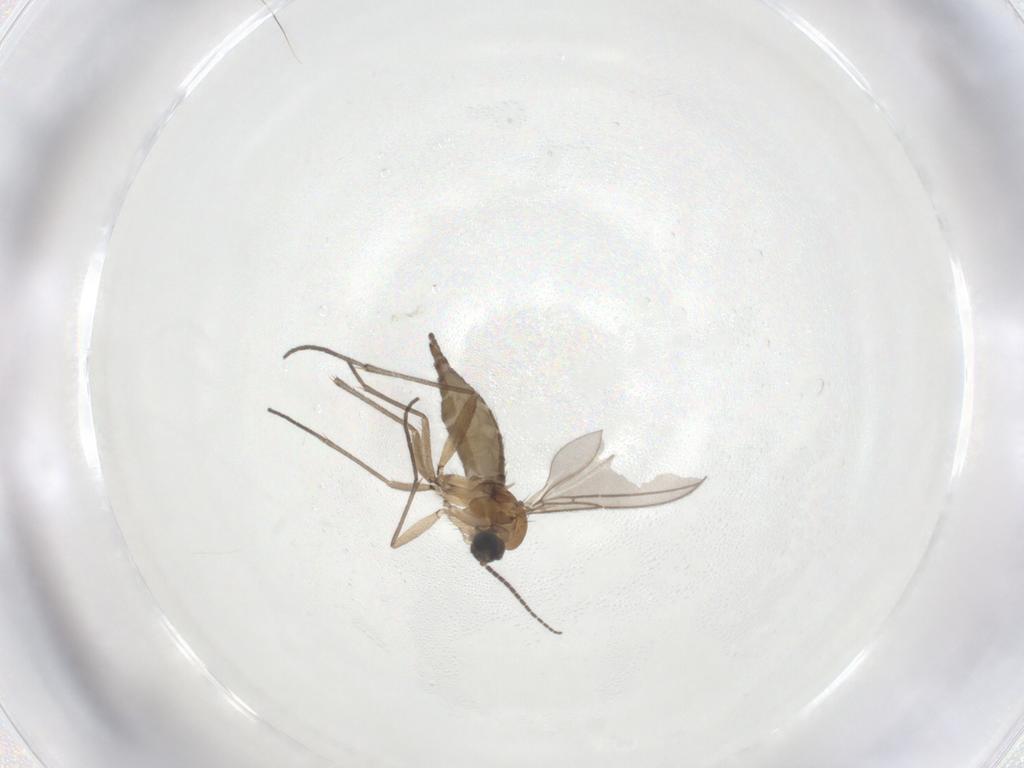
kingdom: Animalia
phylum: Arthropoda
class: Insecta
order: Diptera
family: Sciaridae
